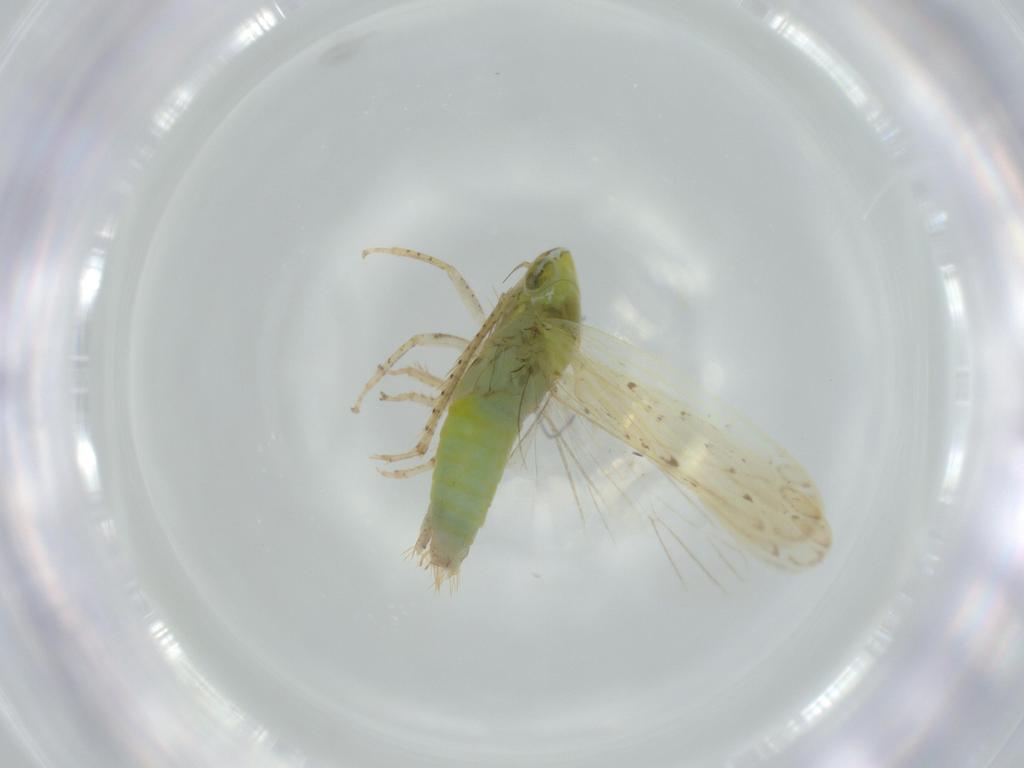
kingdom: Animalia
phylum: Arthropoda
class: Insecta
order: Hemiptera
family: Cicadellidae
